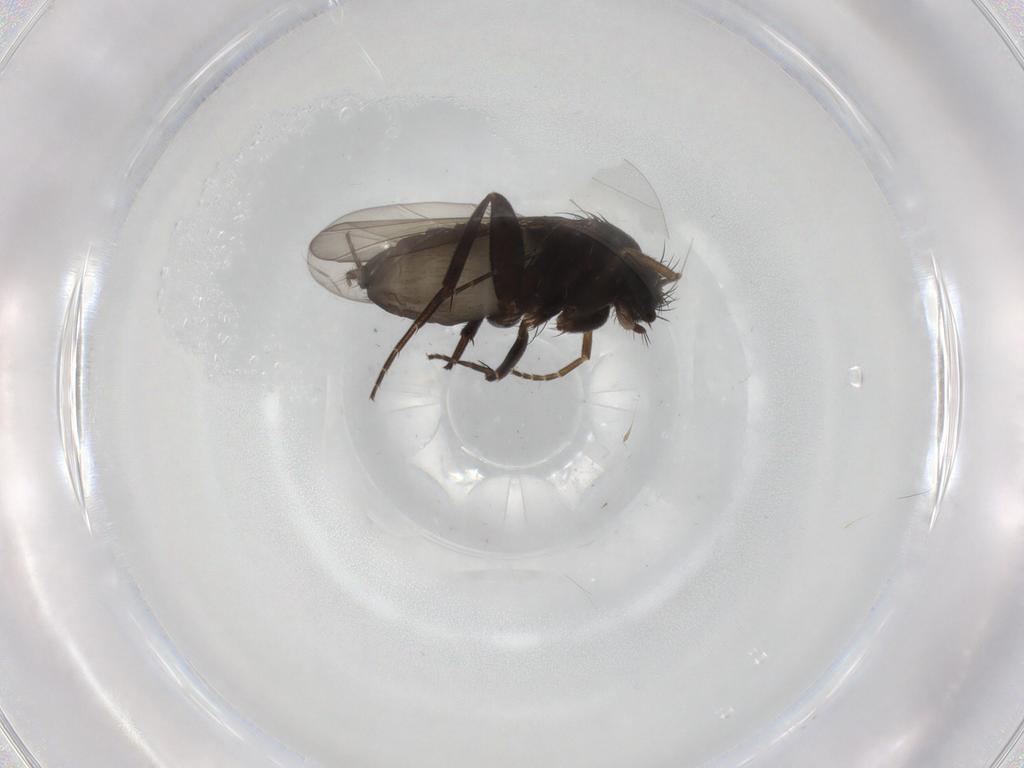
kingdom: Animalia
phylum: Arthropoda
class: Insecta
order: Diptera
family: Phoridae
